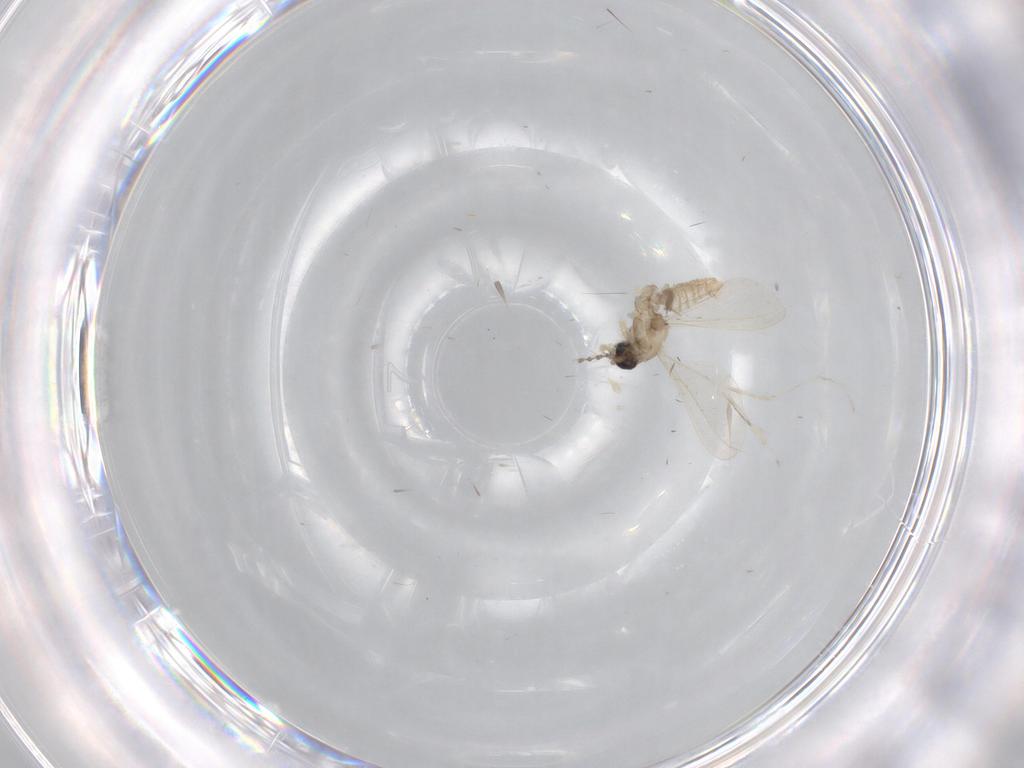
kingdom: Animalia
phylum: Arthropoda
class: Insecta
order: Diptera
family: Cecidomyiidae
